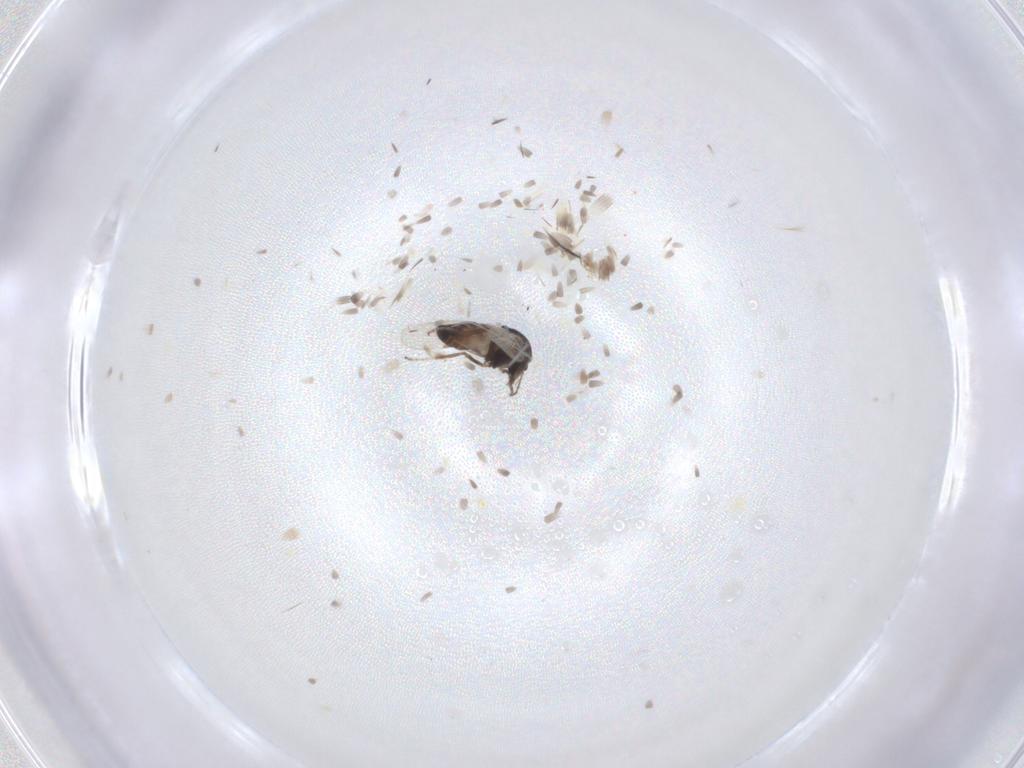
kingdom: Animalia
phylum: Arthropoda
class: Insecta
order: Diptera
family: Ceratopogonidae
